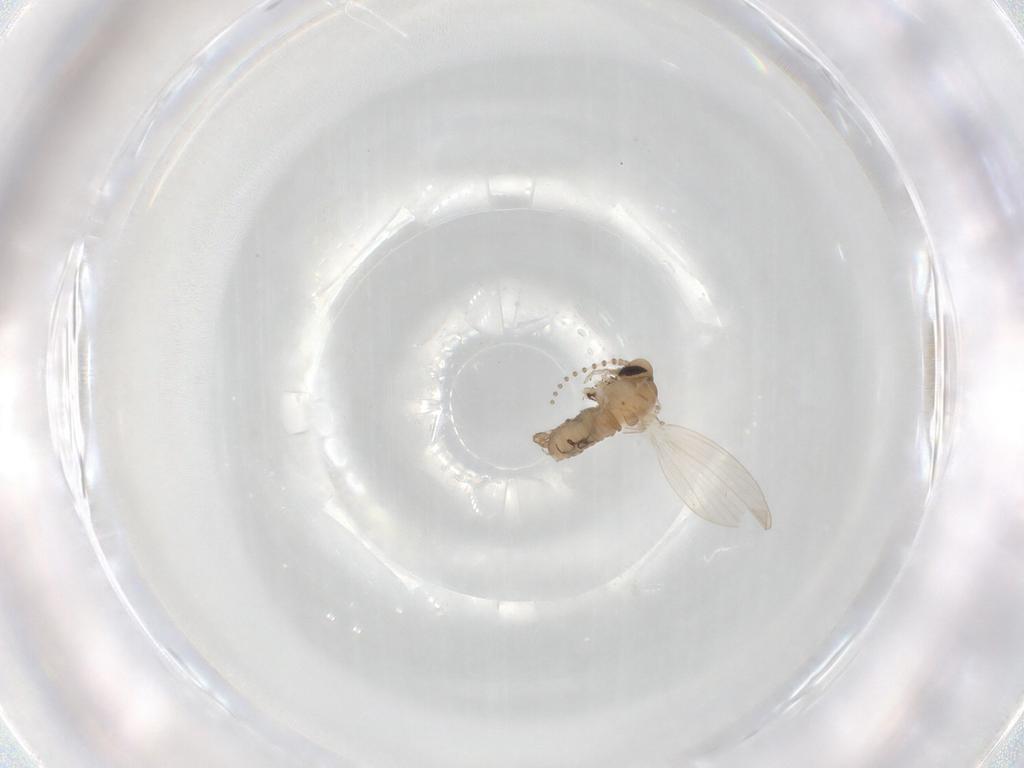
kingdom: Animalia
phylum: Arthropoda
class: Insecta
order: Diptera
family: Psychodidae
